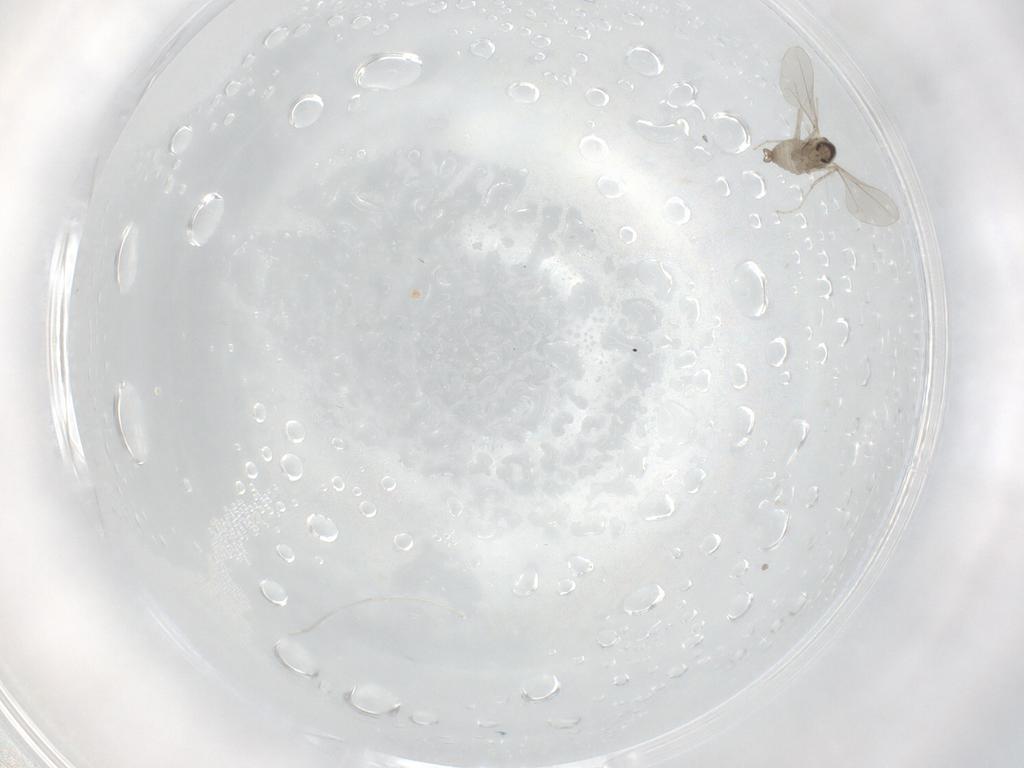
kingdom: Animalia
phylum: Arthropoda
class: Insecta
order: Diptera
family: Cecidomyiidae
